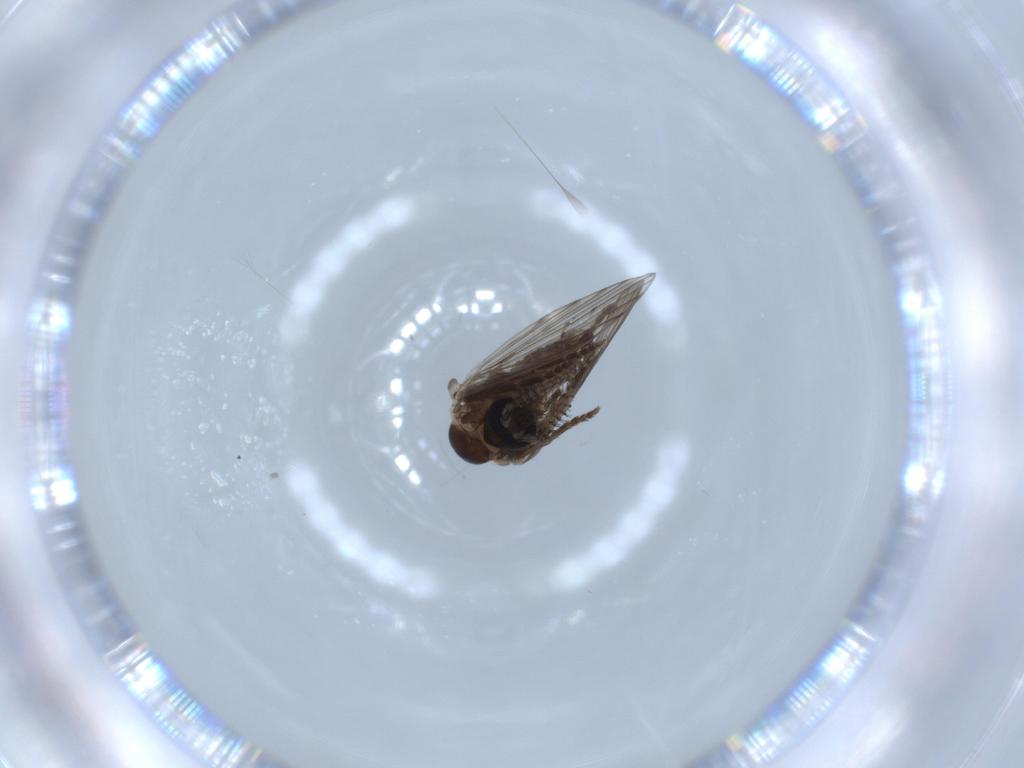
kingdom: Animalia
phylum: Arthropoda
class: Insecta
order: Diptera
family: Psychodidae
